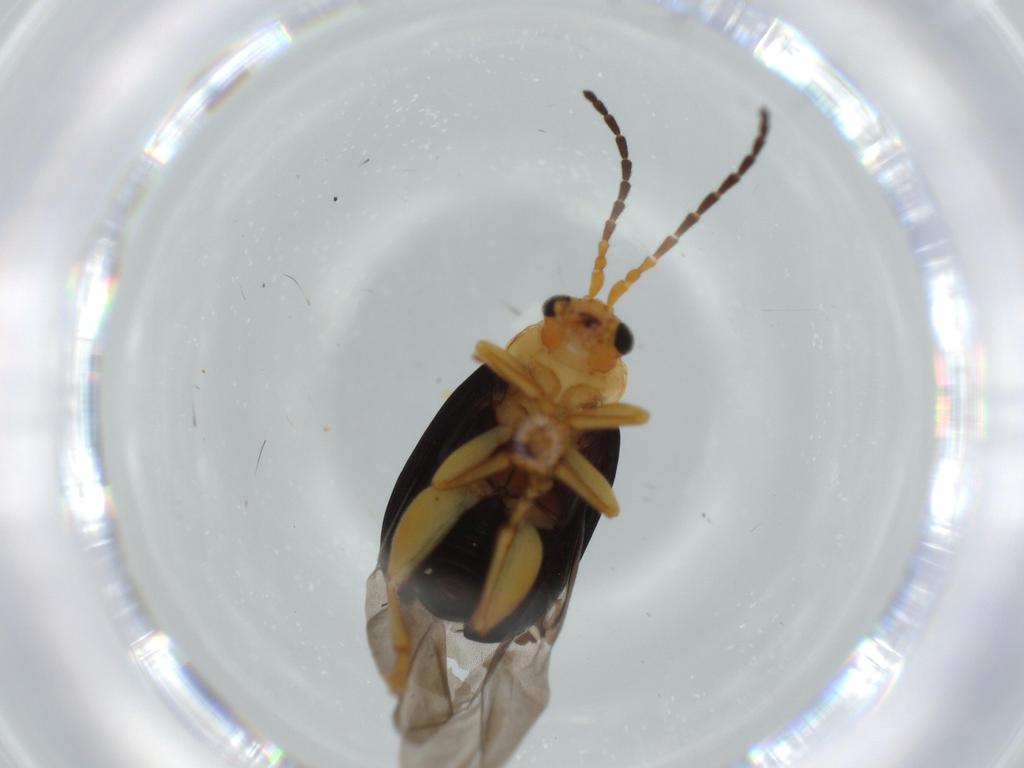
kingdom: Animalia
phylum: Arthropoda
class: Insecta
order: Coleoptera
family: Chrysomelidae
